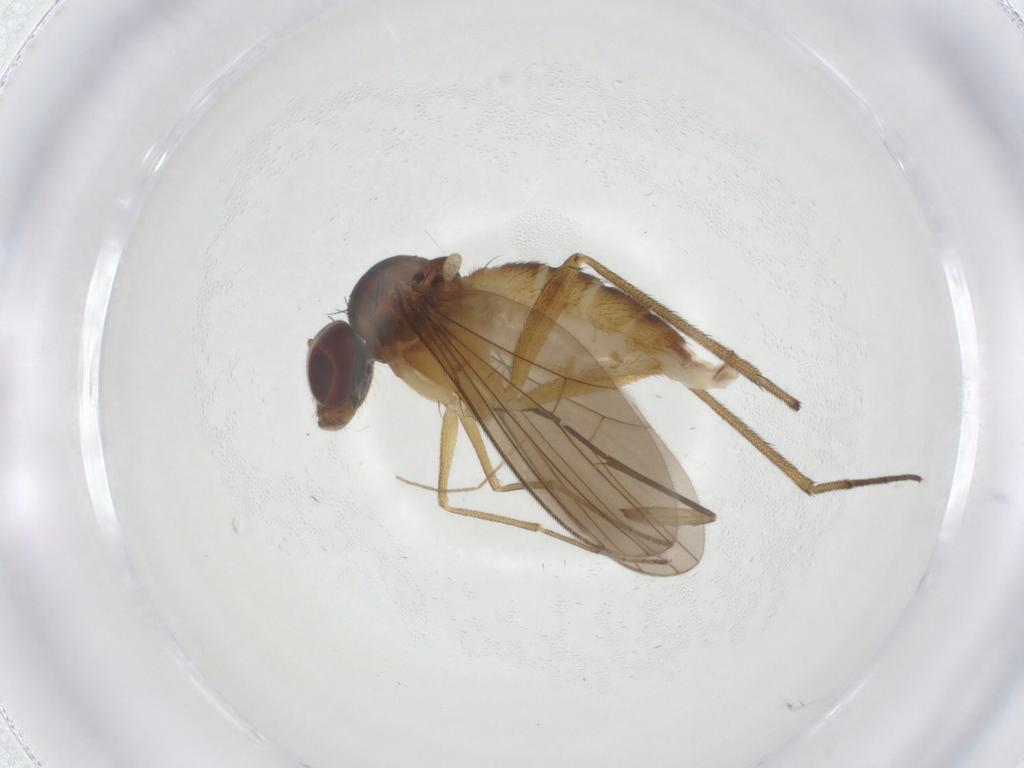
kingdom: Animalia
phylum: Arthropoda
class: Insecta
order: Diptera
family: Dolichopodidae
